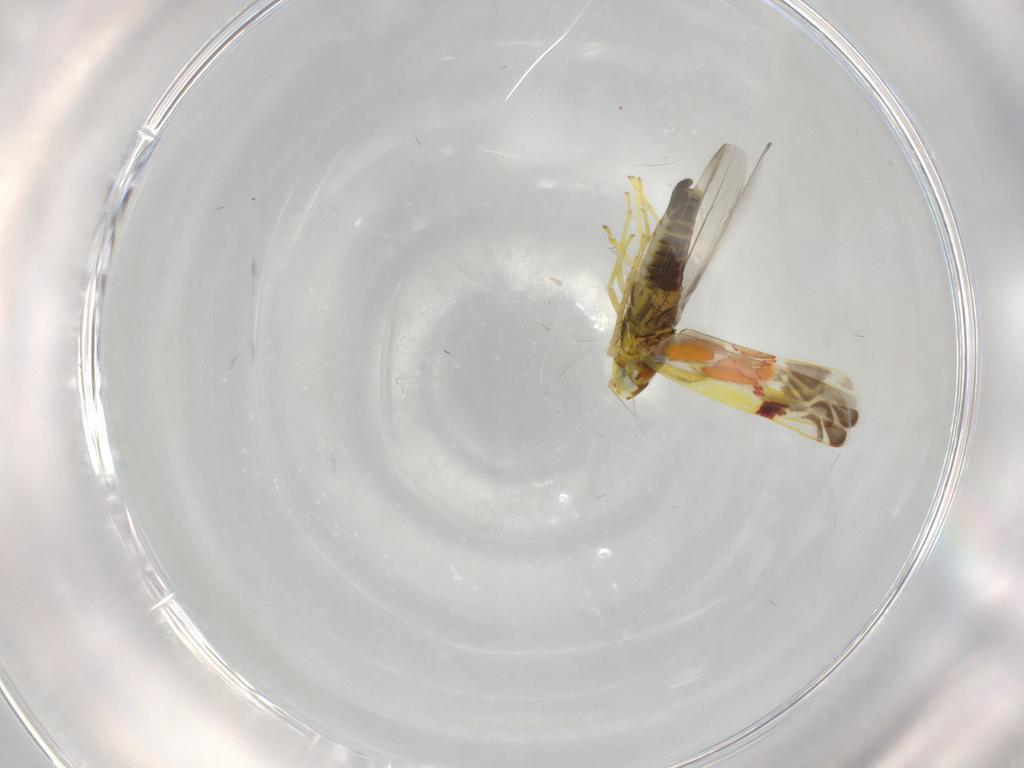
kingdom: Animalia
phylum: Arthropoda
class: Insecta
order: Hemiptera
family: Cicadellidae
